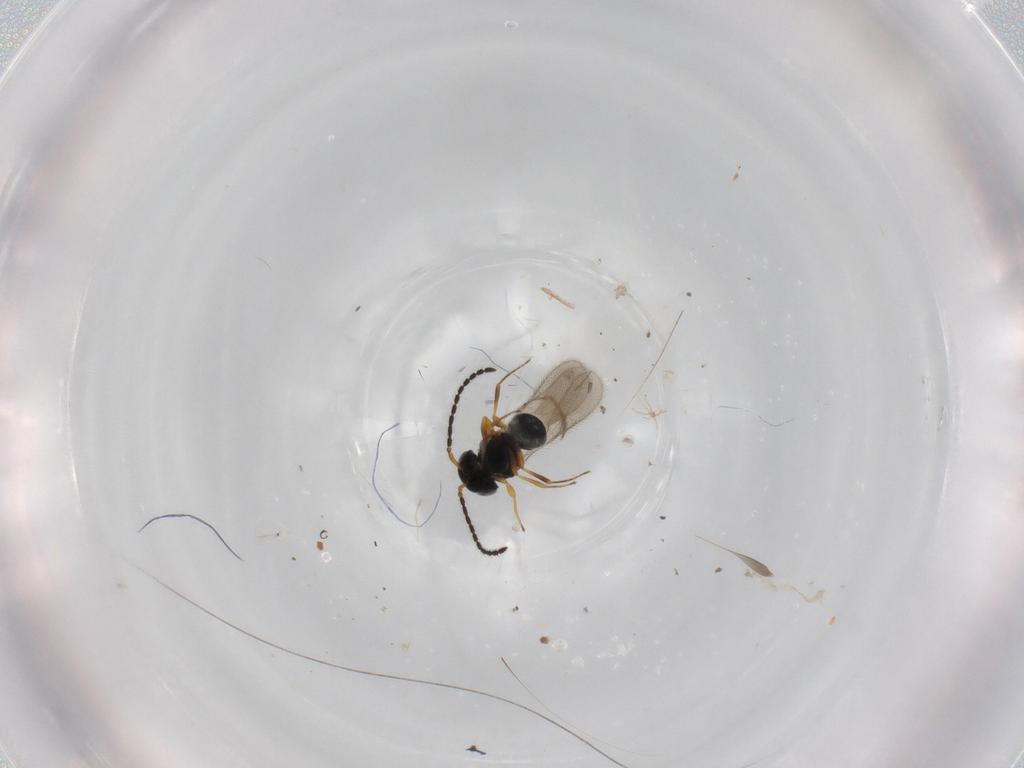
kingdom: Animalia
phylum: Arthropoda
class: Insecta
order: Hymenoptera
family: Scelionidae
